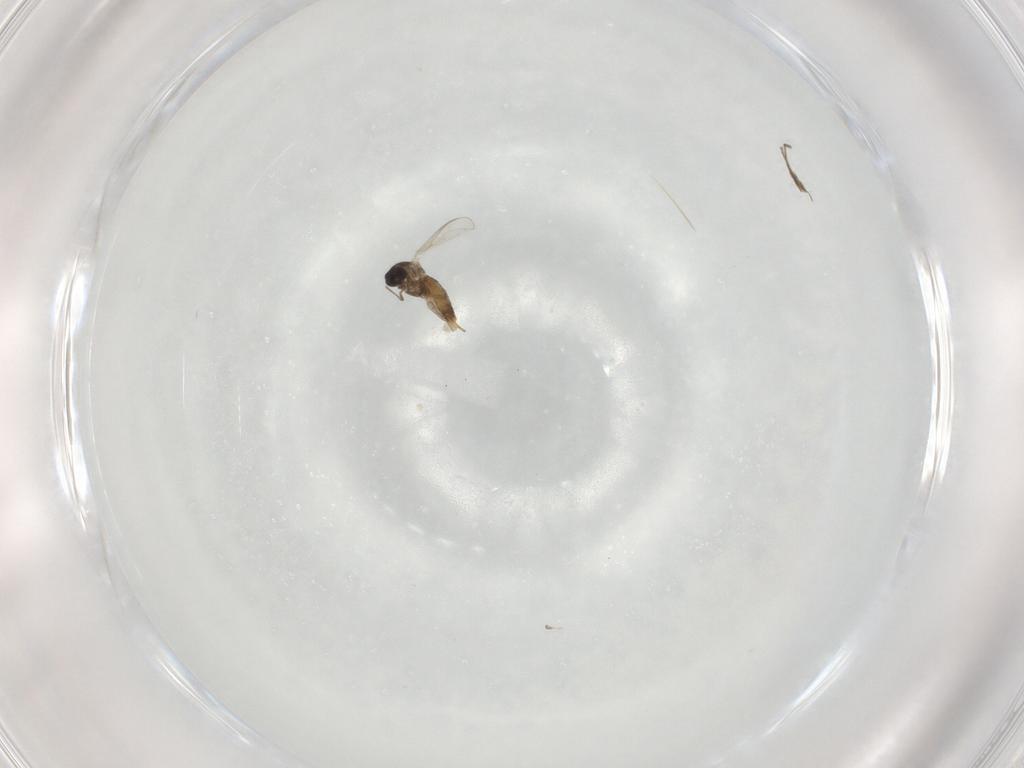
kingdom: Animalia
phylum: Arthropoda
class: Insecta
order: Diptera
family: Chironomidae
